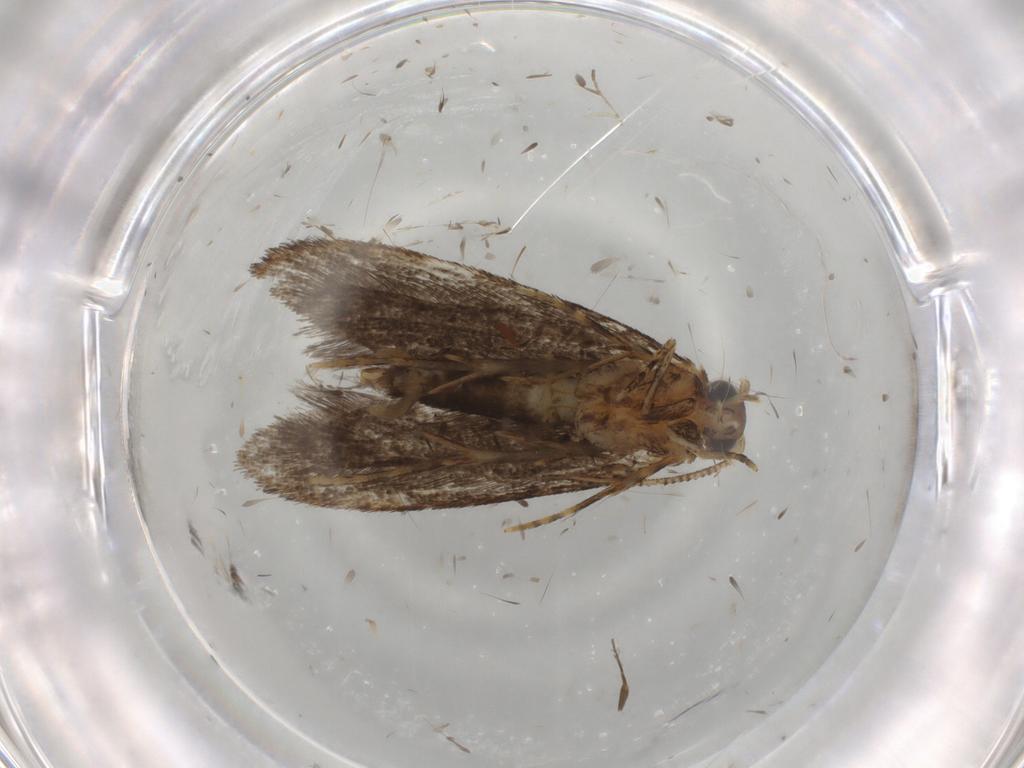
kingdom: Animalia
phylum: Arthropoda
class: Insecta
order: Lepidoptera
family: Tineidae
